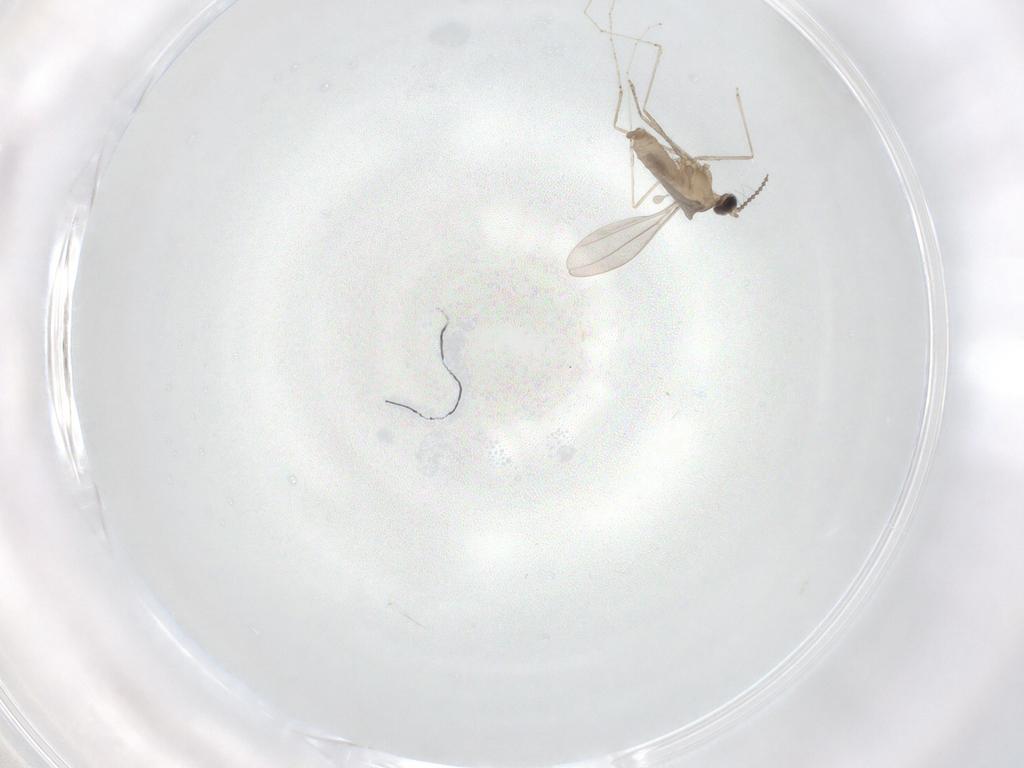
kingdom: Animalia
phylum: Arthropoda
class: Insecta
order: Diptera
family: Cecidomyiidae
